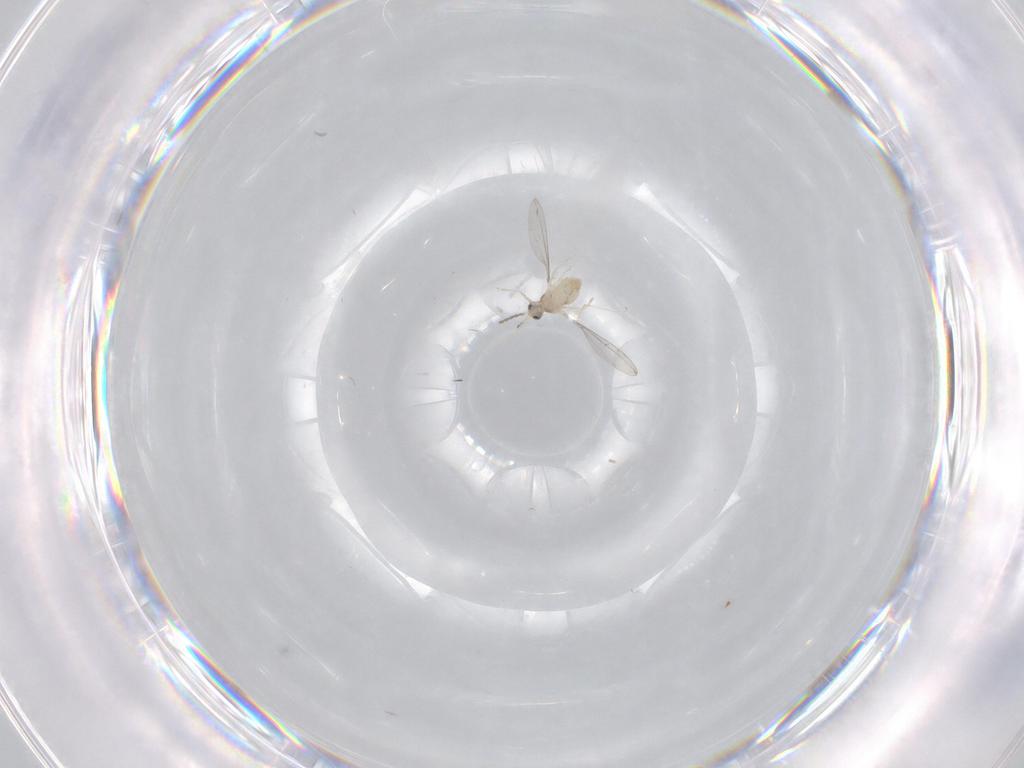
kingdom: Animalia
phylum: Arthropoda
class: Insecta
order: Diptera
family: Cecidomyiidae
